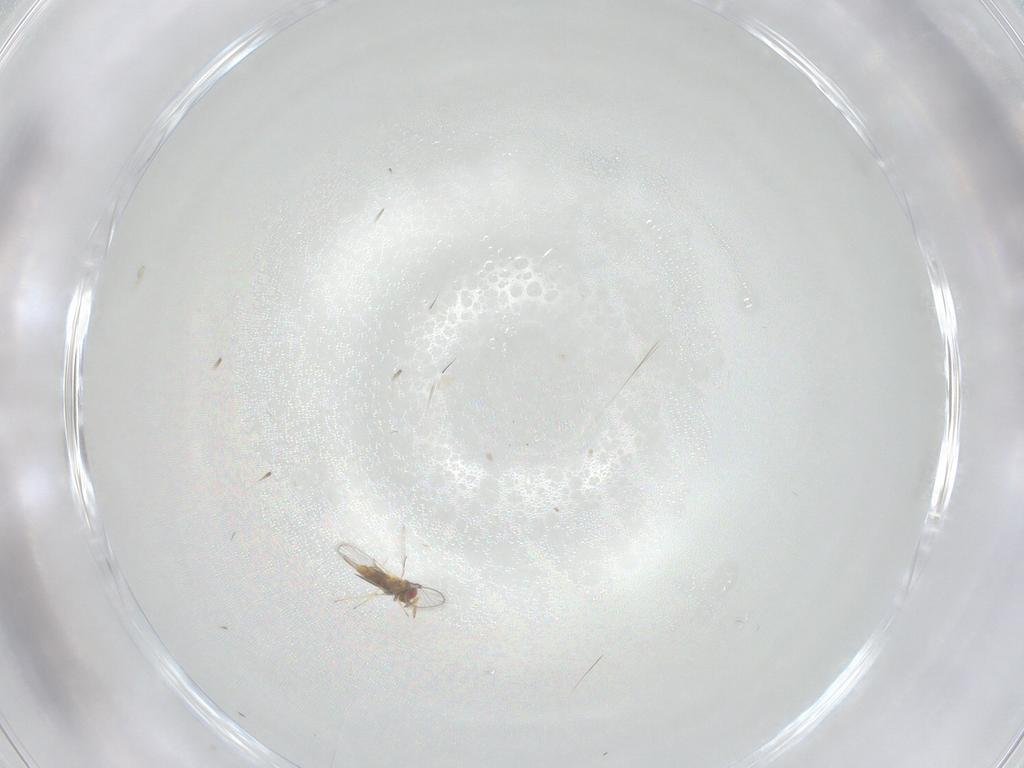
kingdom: Animalia
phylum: Arthropoda
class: Insecta
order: Diptera
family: Cecidomyiidae
